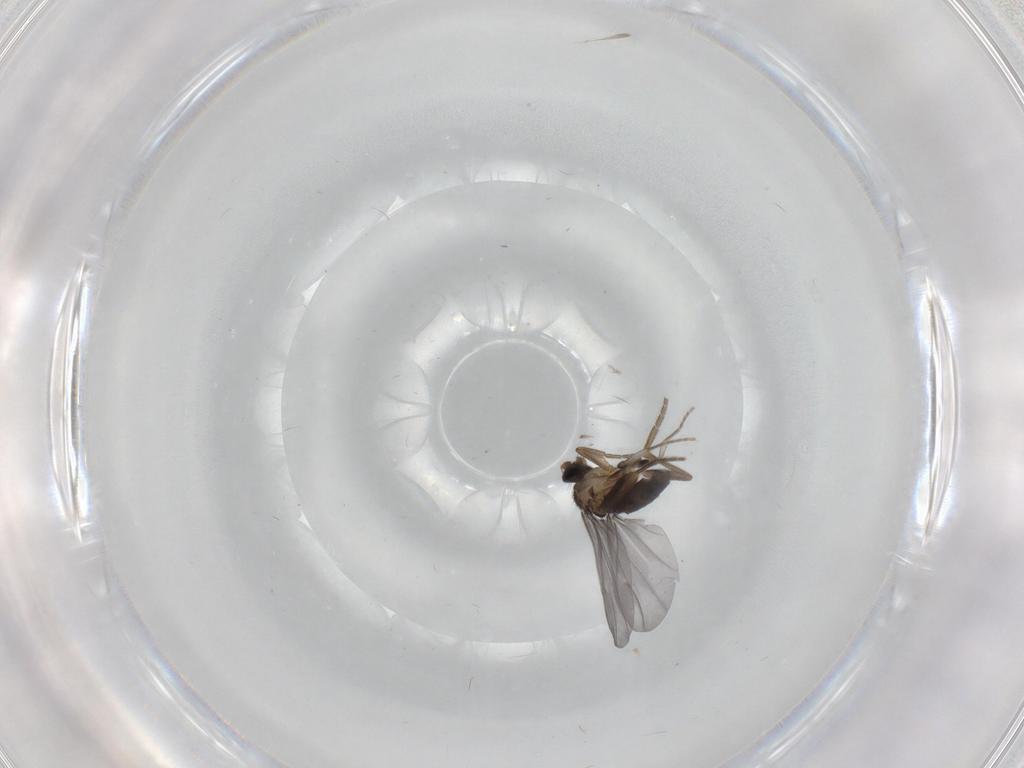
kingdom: Animalia
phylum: Arthropoda
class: Insecta
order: Diptera
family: Phoridae
